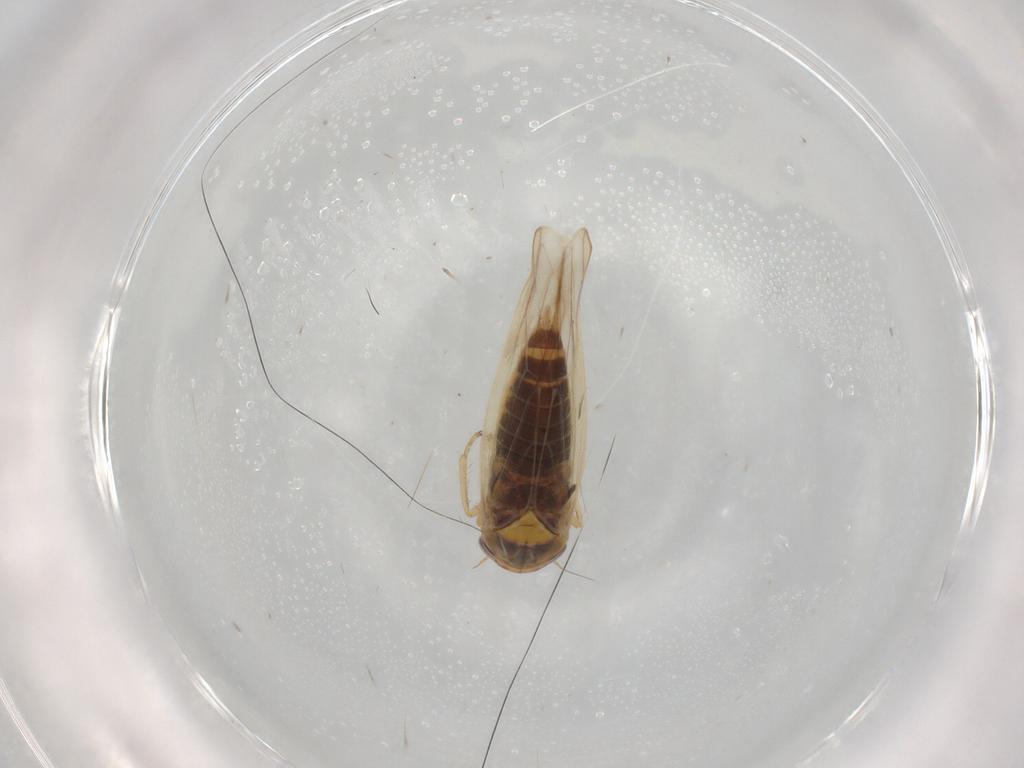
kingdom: Animalia
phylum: Arthropoda
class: Insecta
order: Hemiptera
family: Cicadellidae
